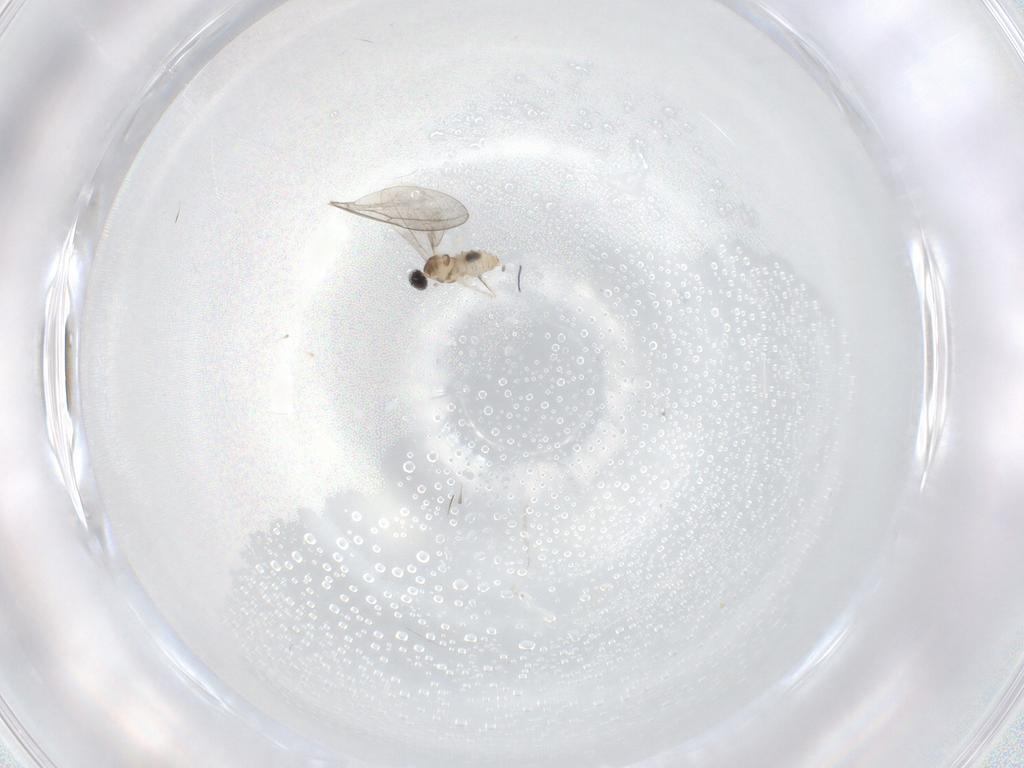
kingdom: Animalia
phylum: Arthropoda
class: Insecta
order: Diptera
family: Cecidomyiidae
